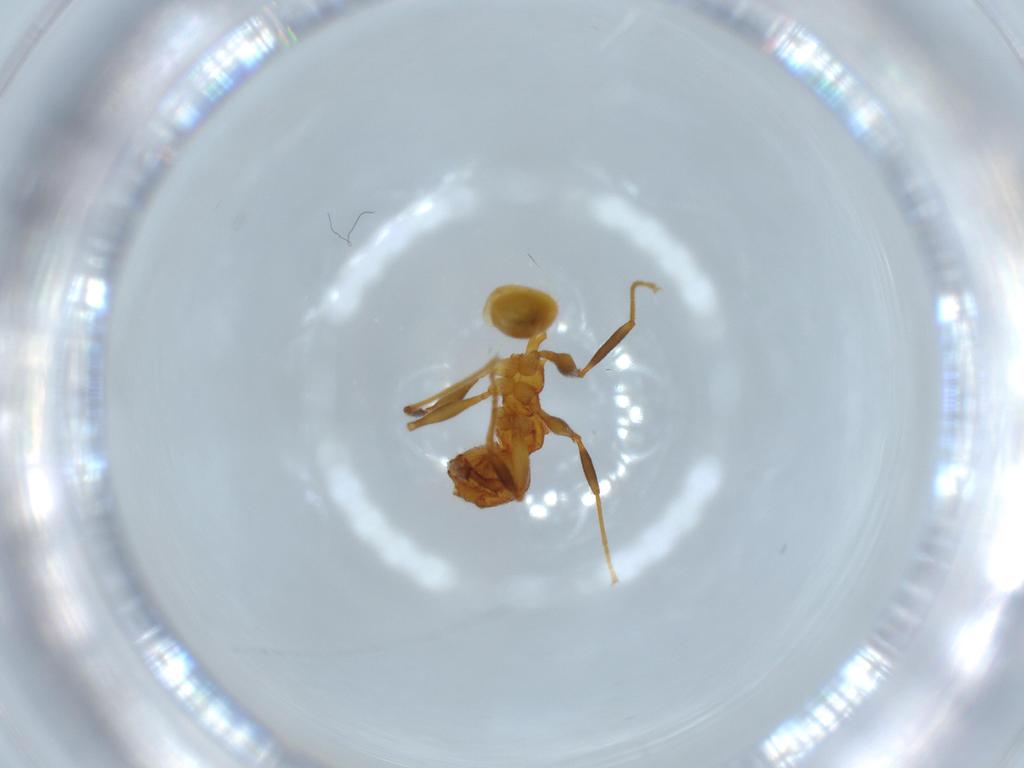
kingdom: Animalia
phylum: Arthropoda
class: Insecta
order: Hymenoptera
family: Formicidae
